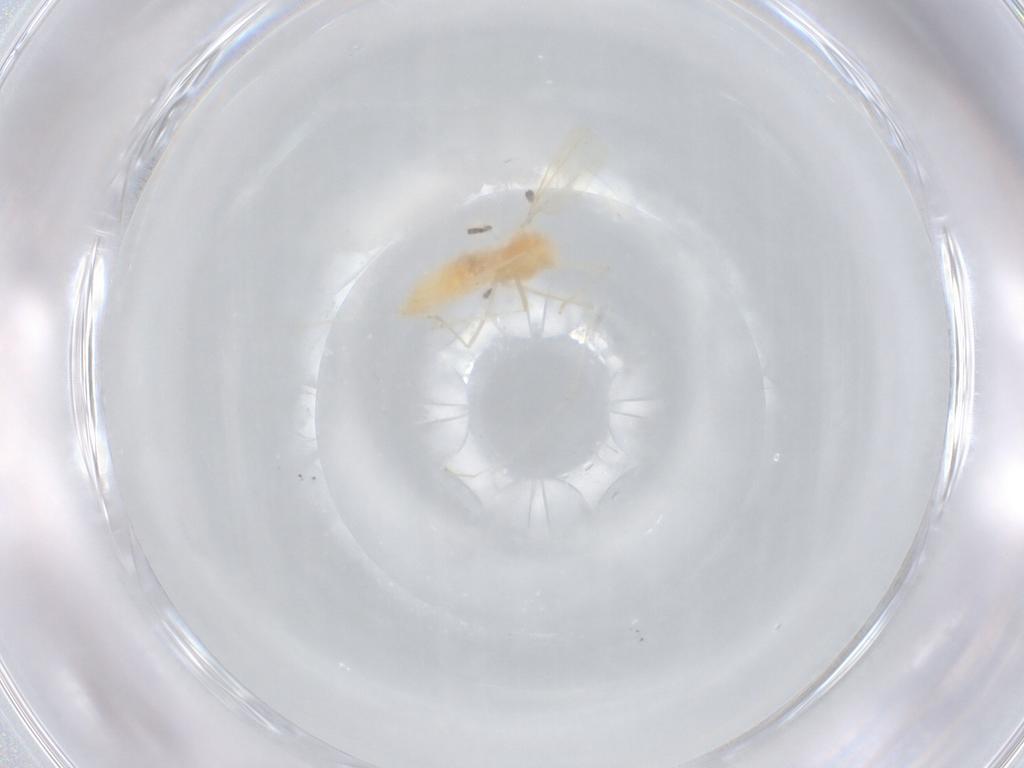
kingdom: Animalia
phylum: Arthropoda
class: Insecta
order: Diptera
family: Cecidomyiidae
